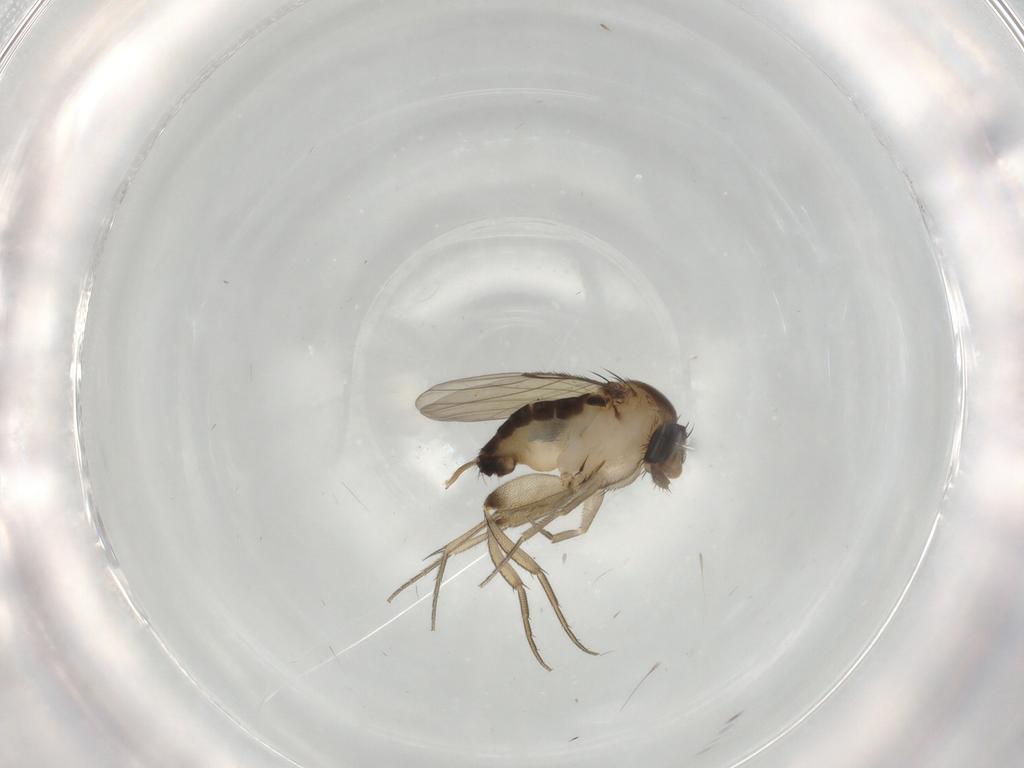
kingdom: Animalia
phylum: Arthropoda
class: Insecta
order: Diptera
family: Phoridae
